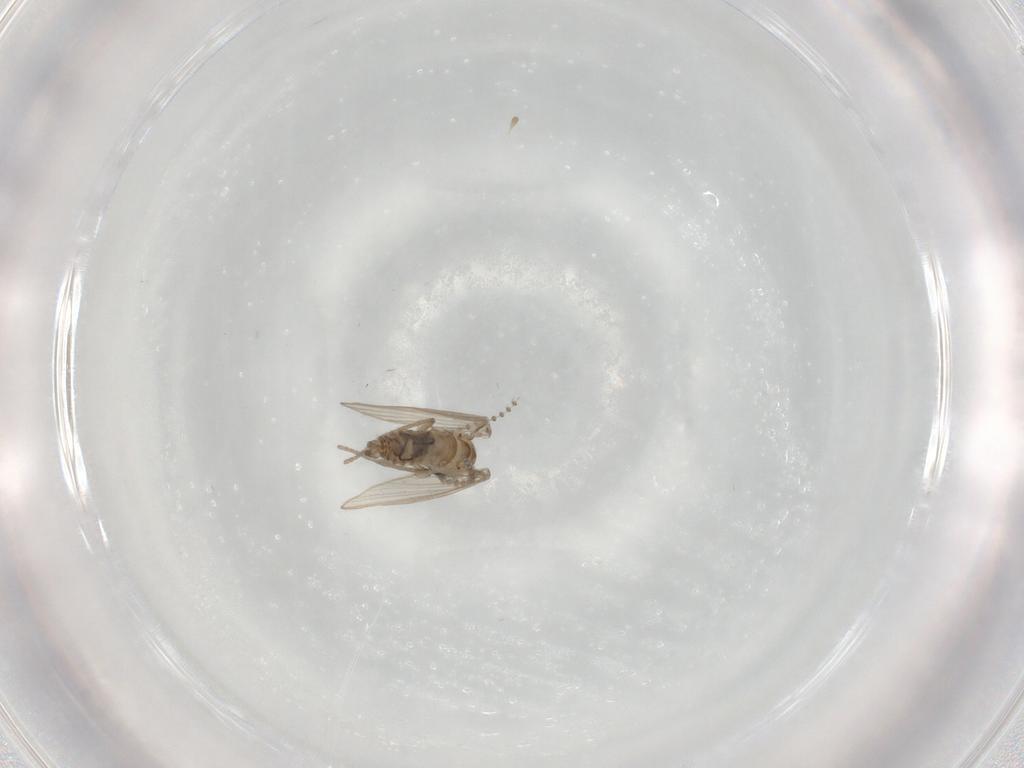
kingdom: Animalia
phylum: Arthropoda
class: Insecta
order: Diptera
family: Psychodidae
